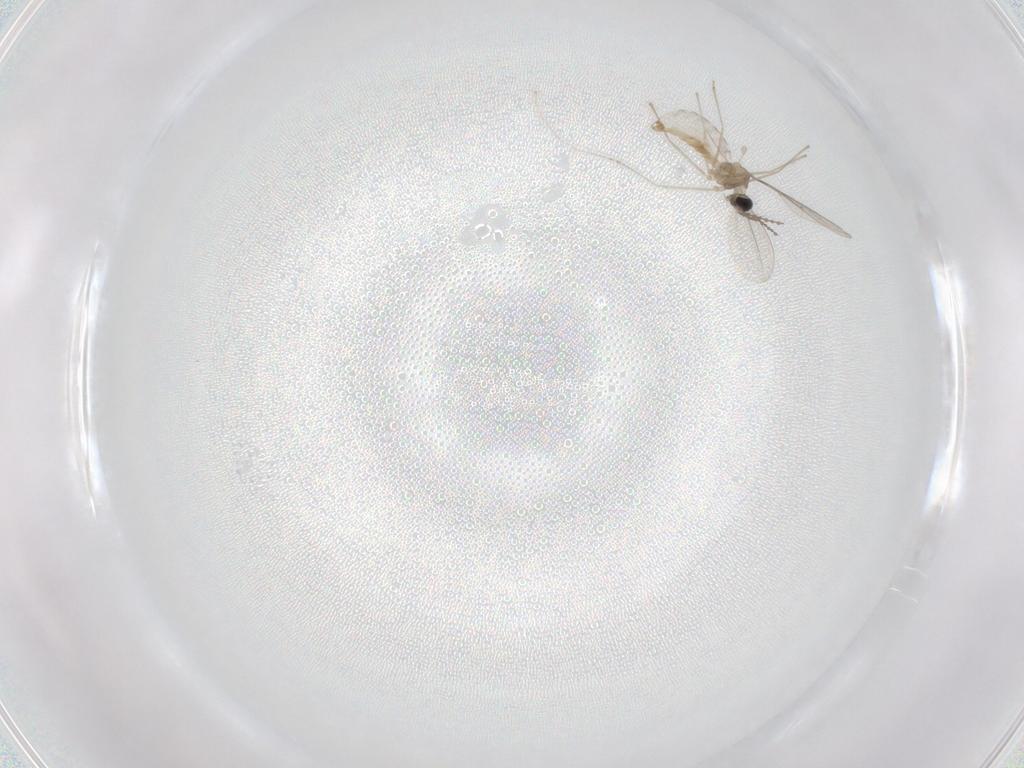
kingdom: Animalia
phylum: Arthropoda
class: Insecta
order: Diptera
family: Cecidomyiidae
